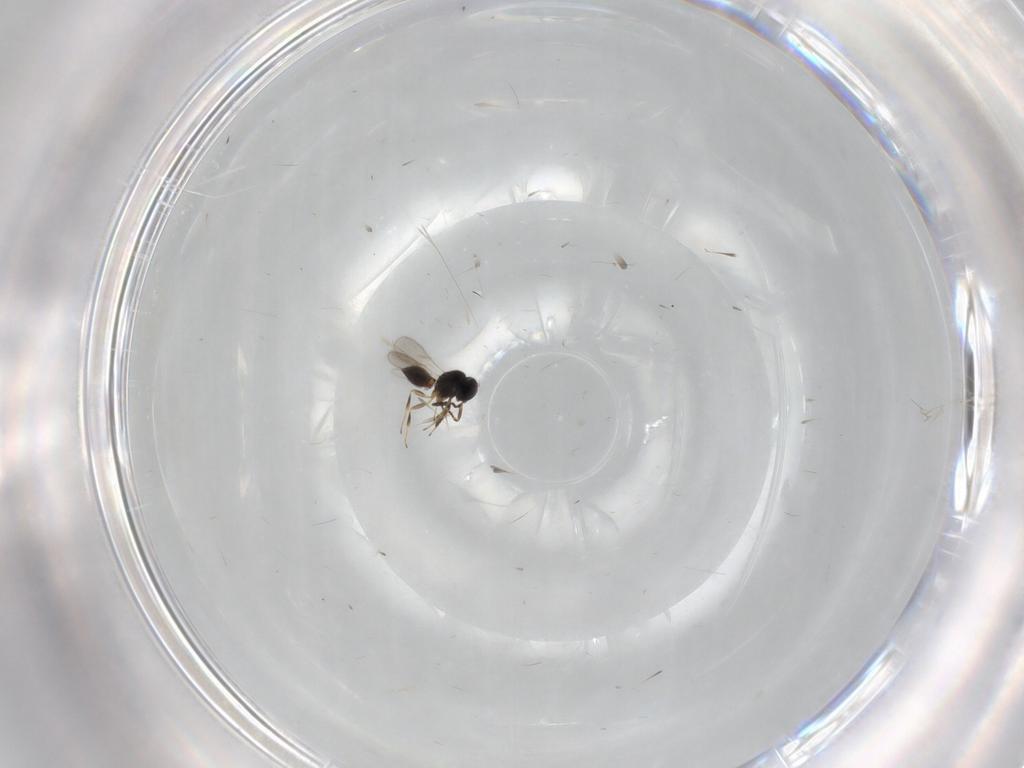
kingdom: Animalia
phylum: Arthropoda
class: Insecta
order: Hymenoptera
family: Scelionidae
